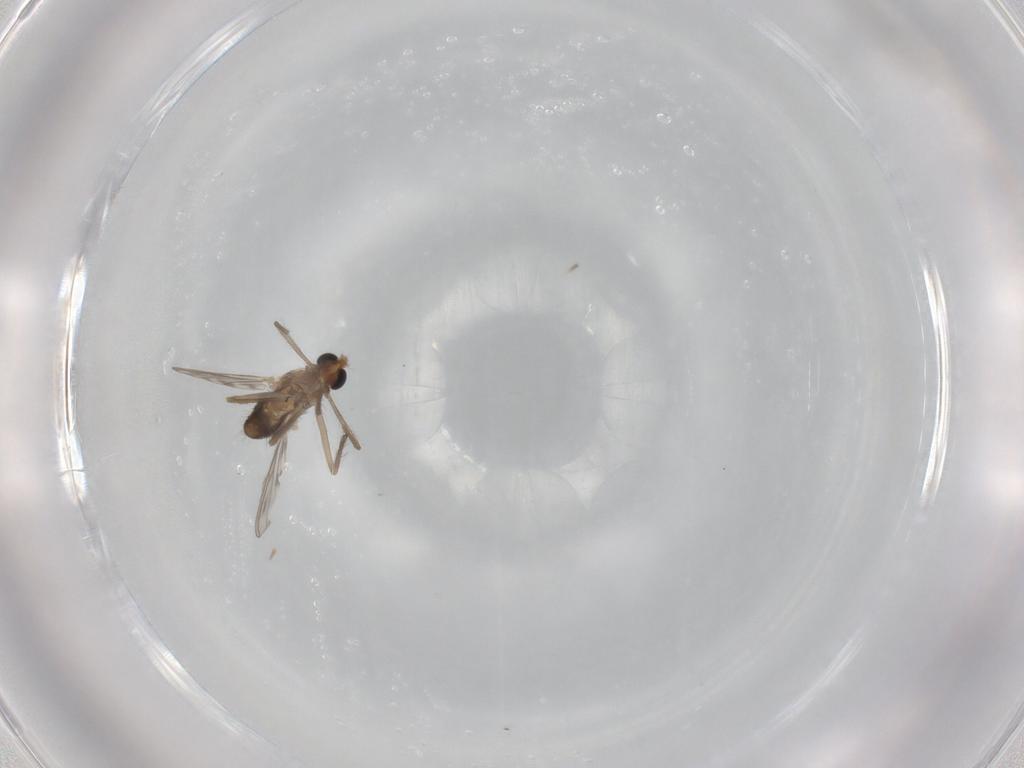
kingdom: Animalia
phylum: Arthropoda
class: Insecta
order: Diptera
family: Chironomidae
